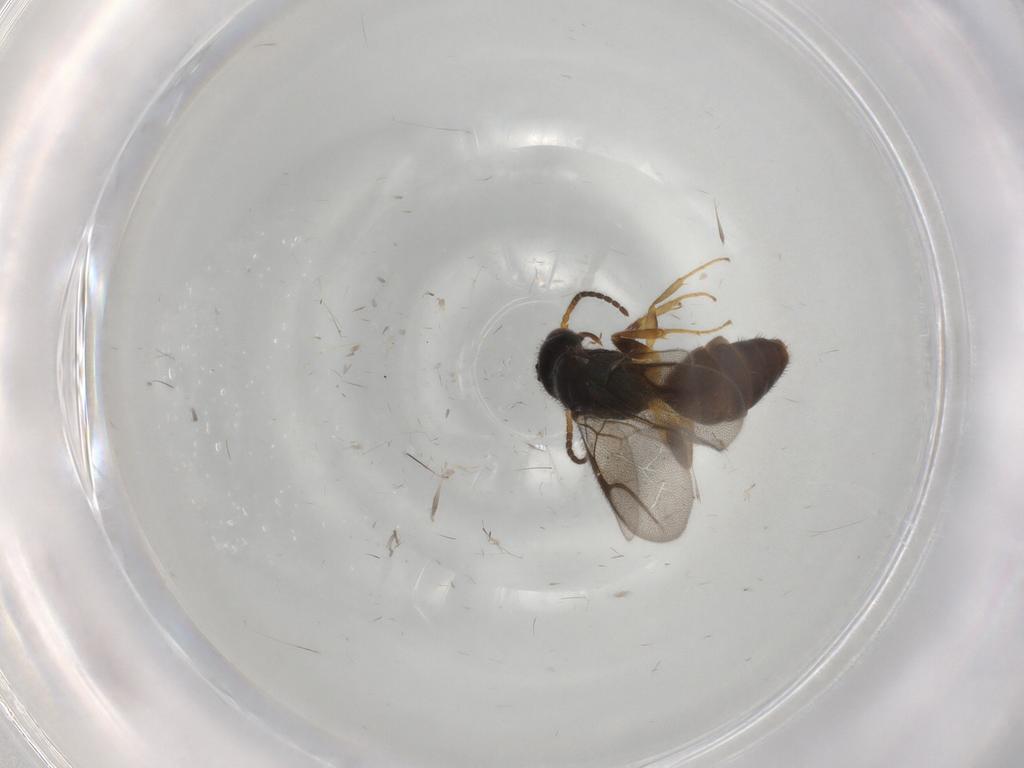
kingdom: Animalia
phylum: Arthropoda
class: Insecta
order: Hymenoptera
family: Bethylidae
